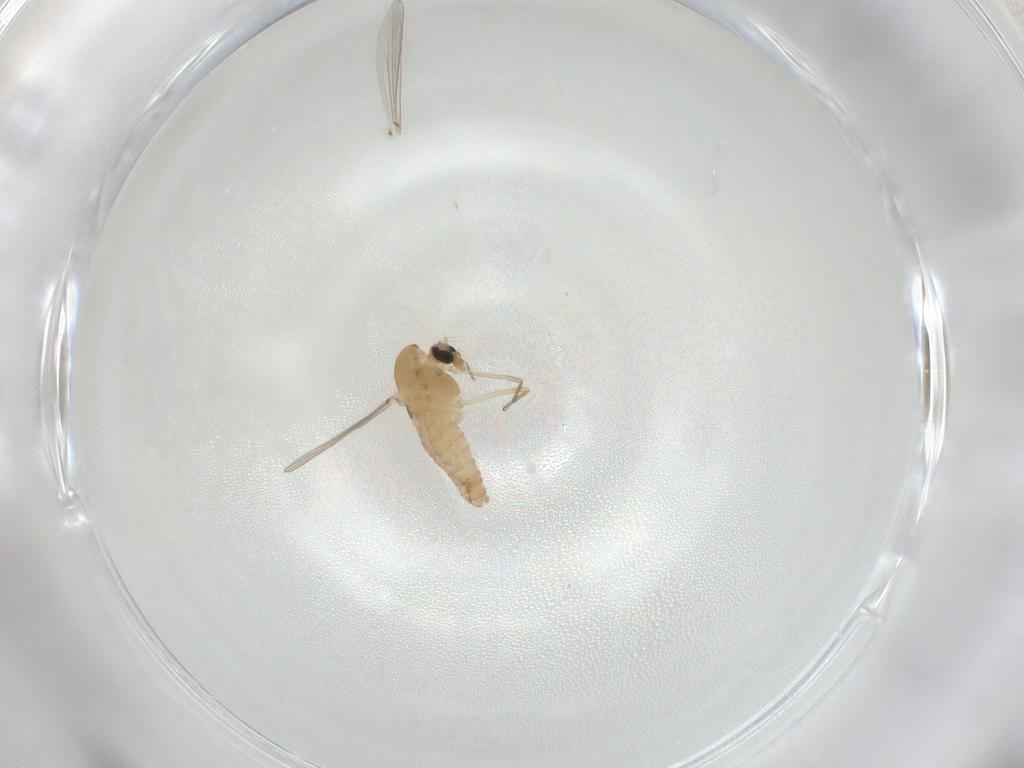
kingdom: Animalia
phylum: Arthropoda
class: Insecta
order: Diptera
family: Chironomidae
